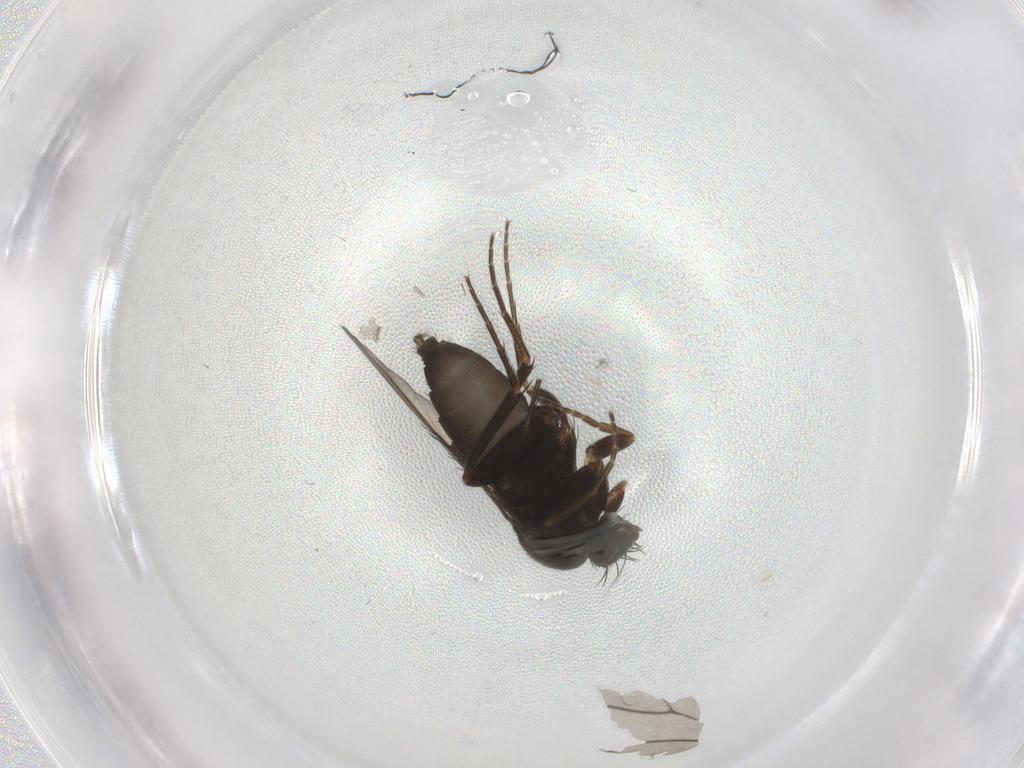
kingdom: Animalia
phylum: Arthropoda
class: Insecta
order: Diptera
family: Phoridae
